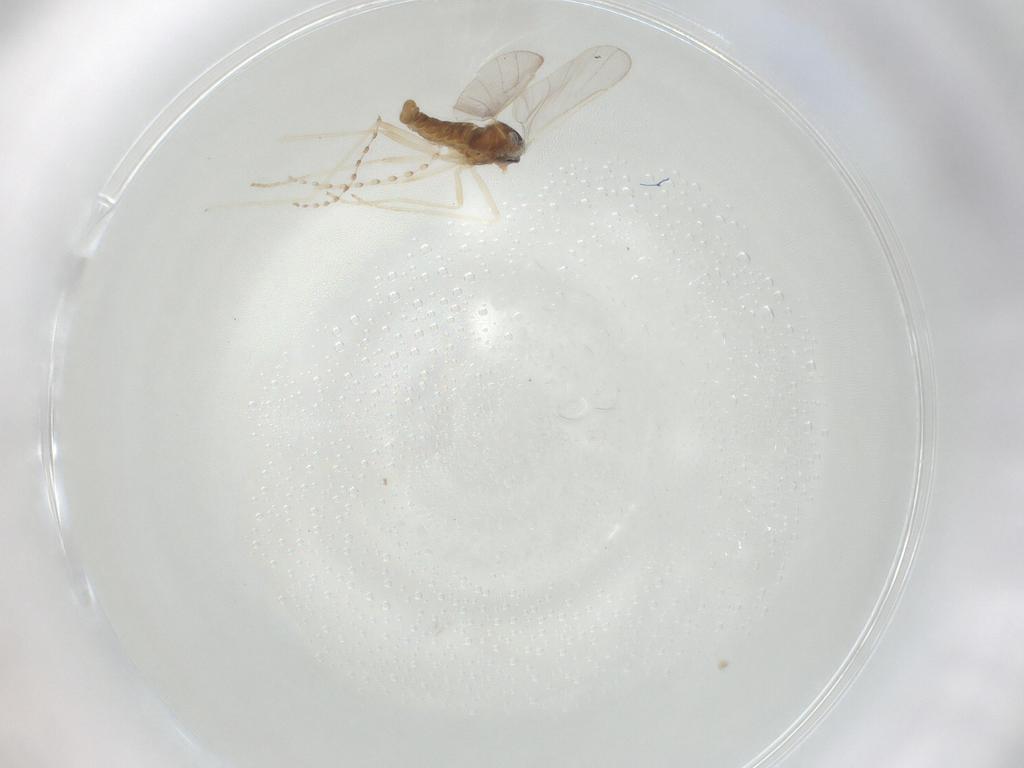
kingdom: Animalia
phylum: Arthropoda
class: Insecta
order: Diptera
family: Cecidomyiidae
